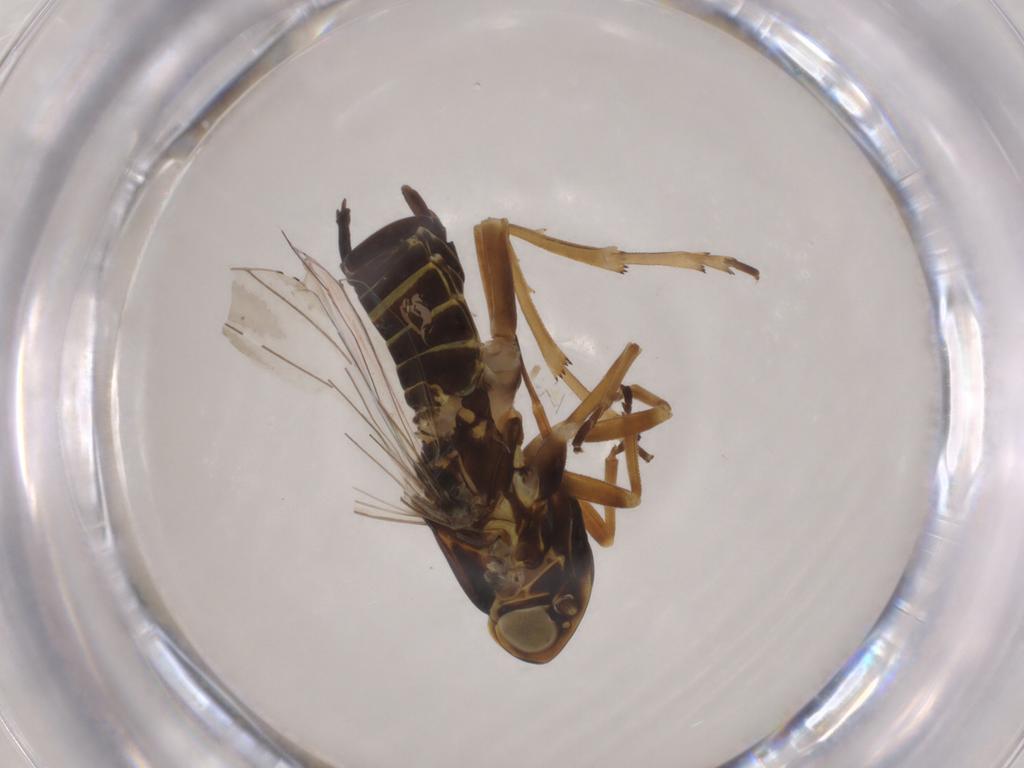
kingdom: Animalia
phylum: Arthropoda
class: Insecta
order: Hemiptera
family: Cixiidae
